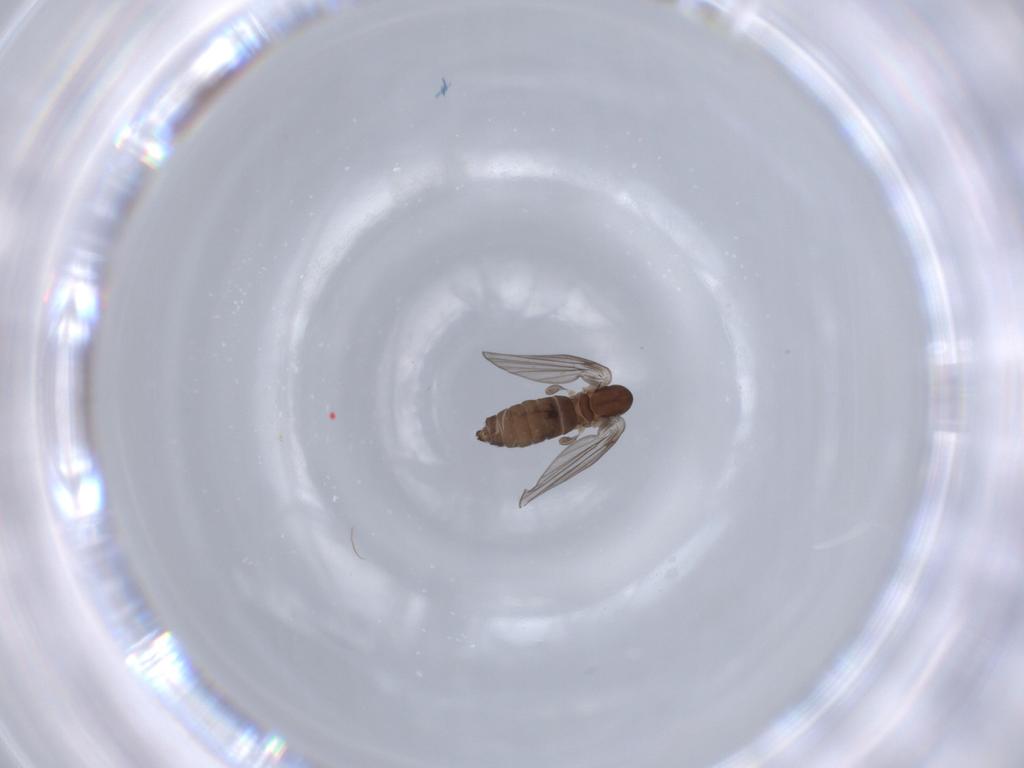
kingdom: Animalia
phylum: Arthropoda
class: Insecta
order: Diptera
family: Psychodidae
